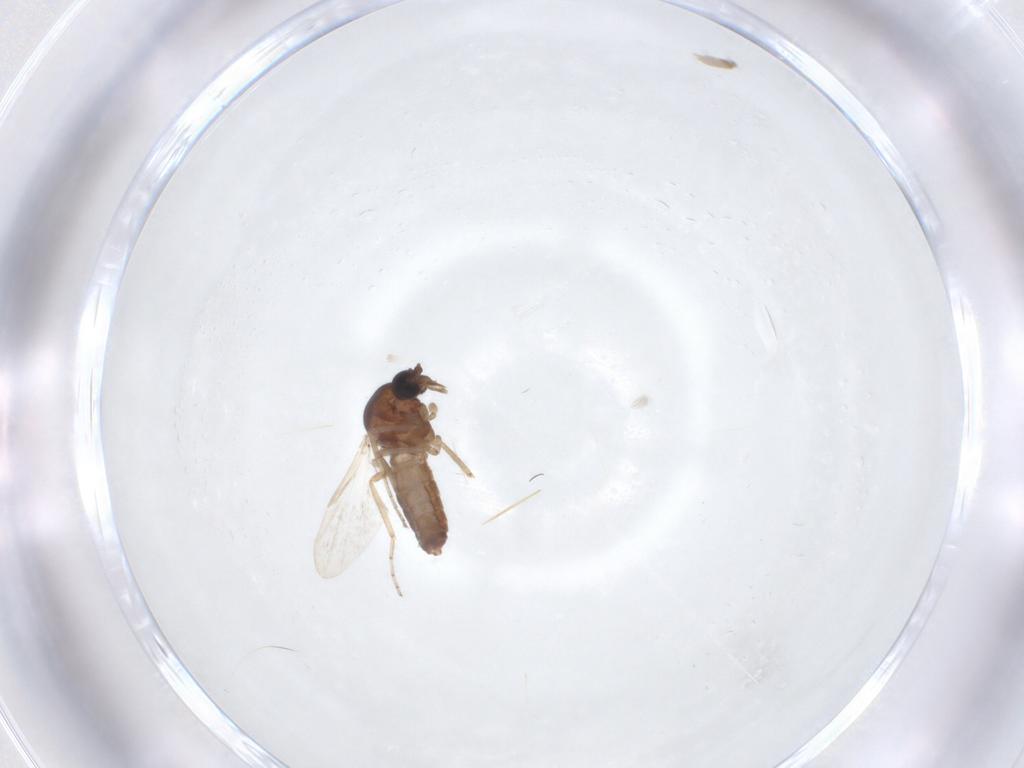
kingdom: Animalia
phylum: Arthropoda
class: Insecta
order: Diptera
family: Ceratopogonidae
